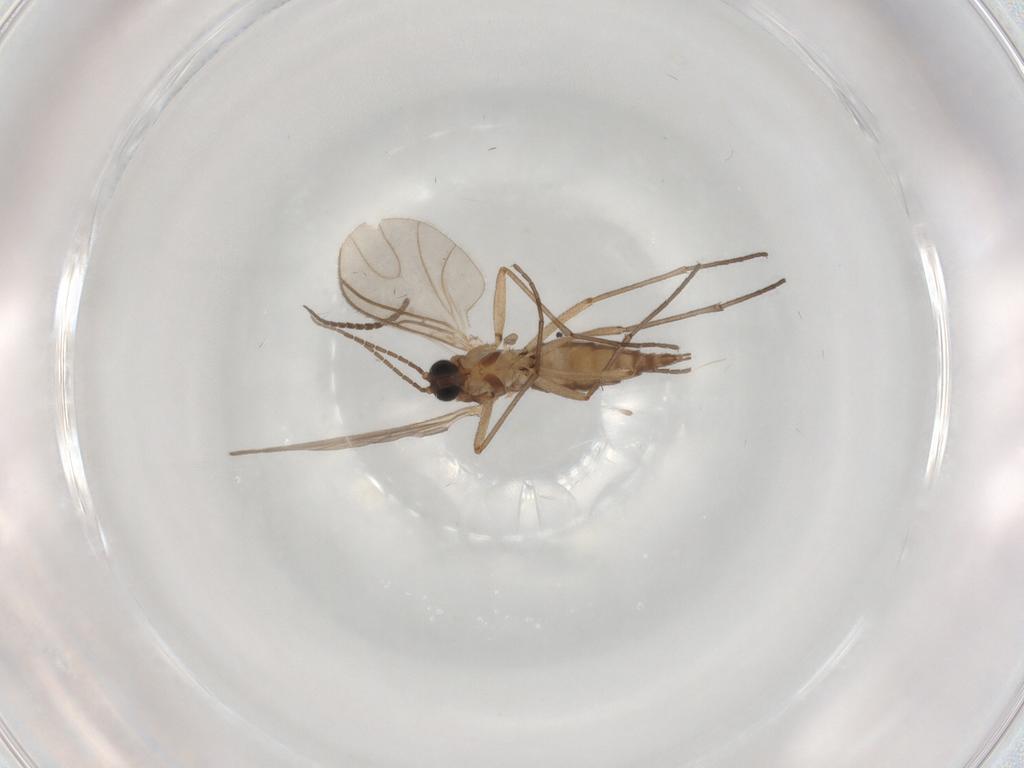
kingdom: Animalia
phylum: Arthropoda
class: Insecta
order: Diptera
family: Sciaridae
